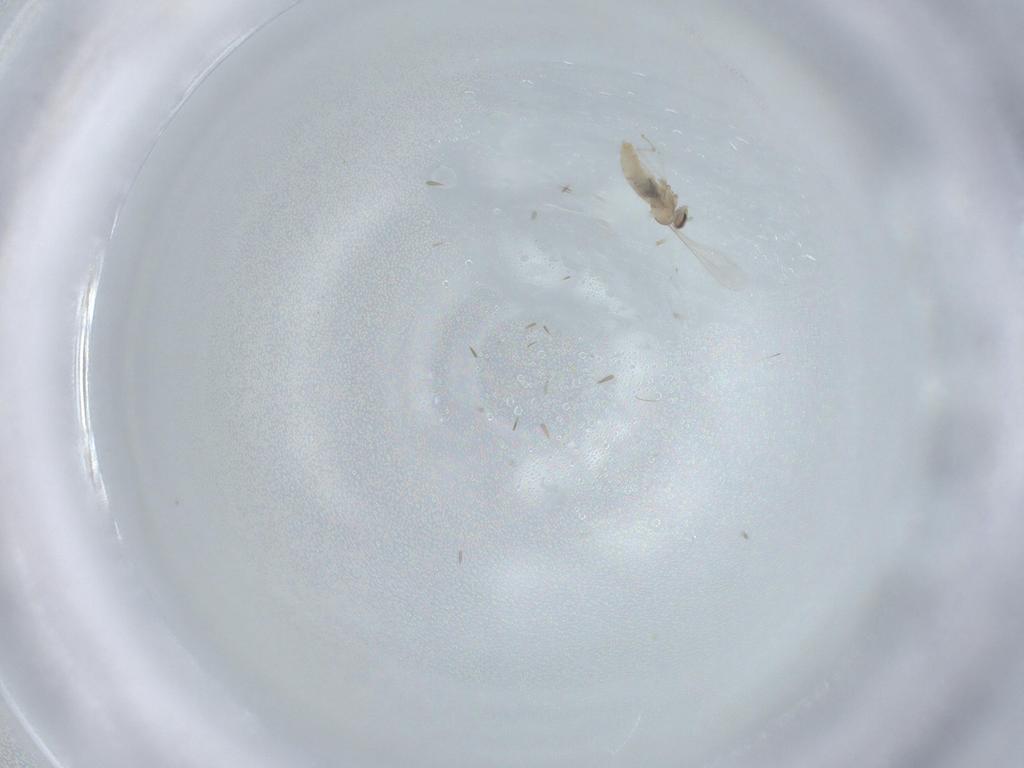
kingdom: Animalia
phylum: Arthropoda
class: Insecta
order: Diptera
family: Cecidomyiidae
